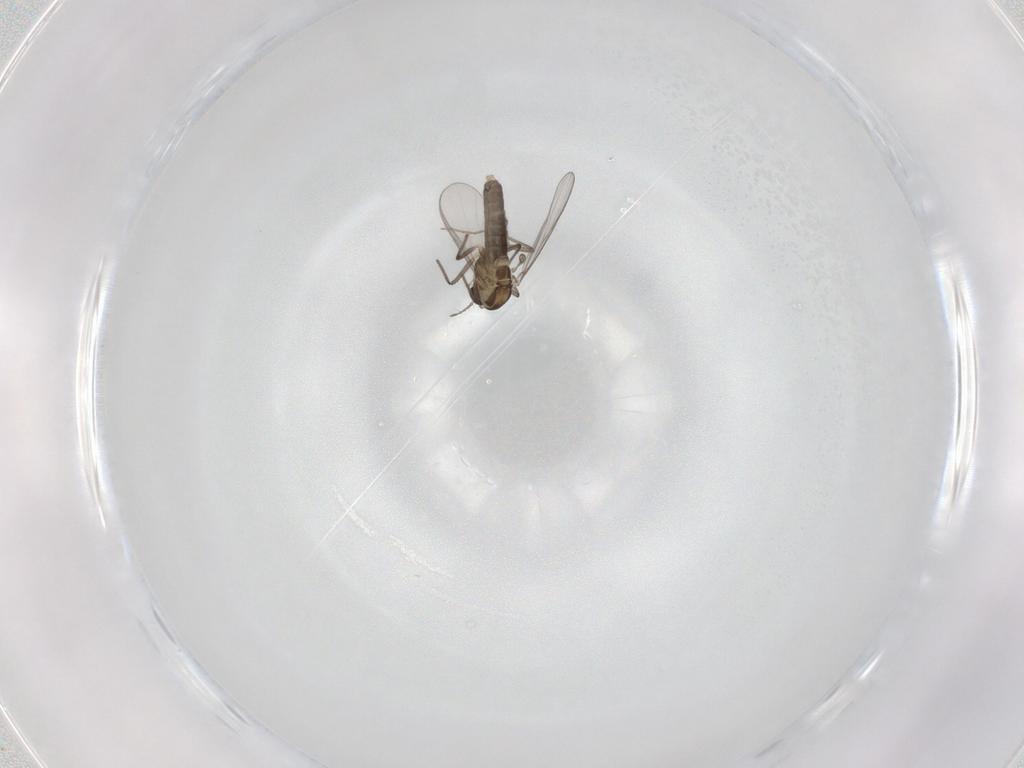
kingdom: Animalia
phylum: Arthropoda
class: Insecta
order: Diptera
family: Chironomidae
